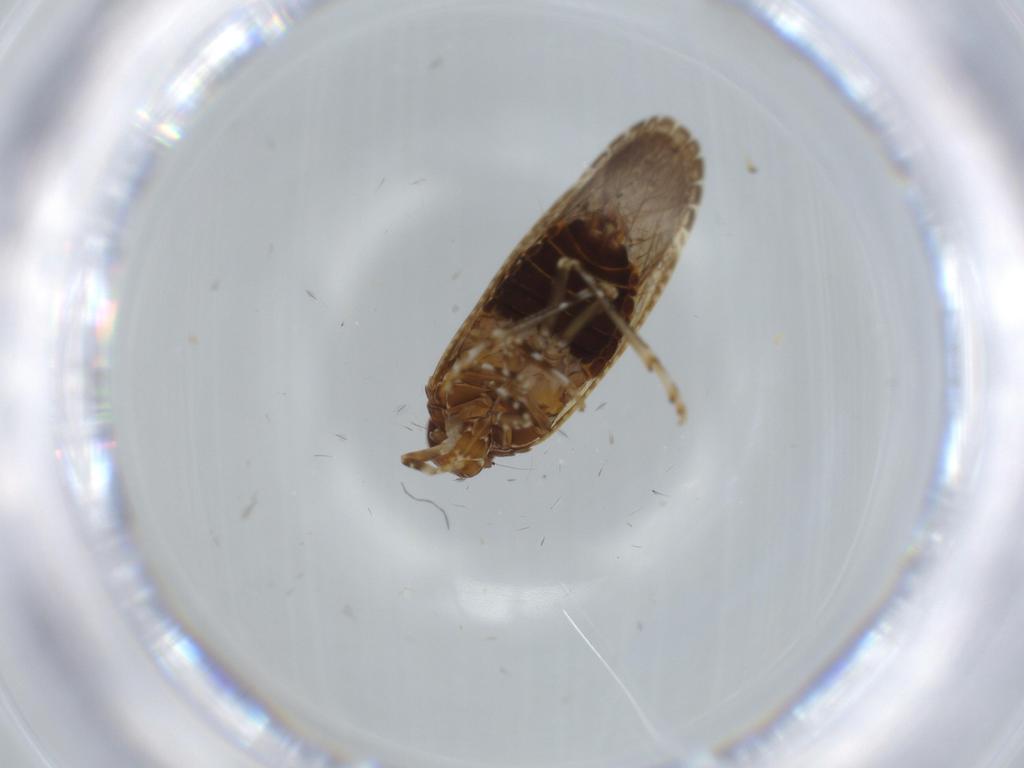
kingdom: Animalia
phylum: Arthropoda
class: Insecta
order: Hemiptera
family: Achilidae
